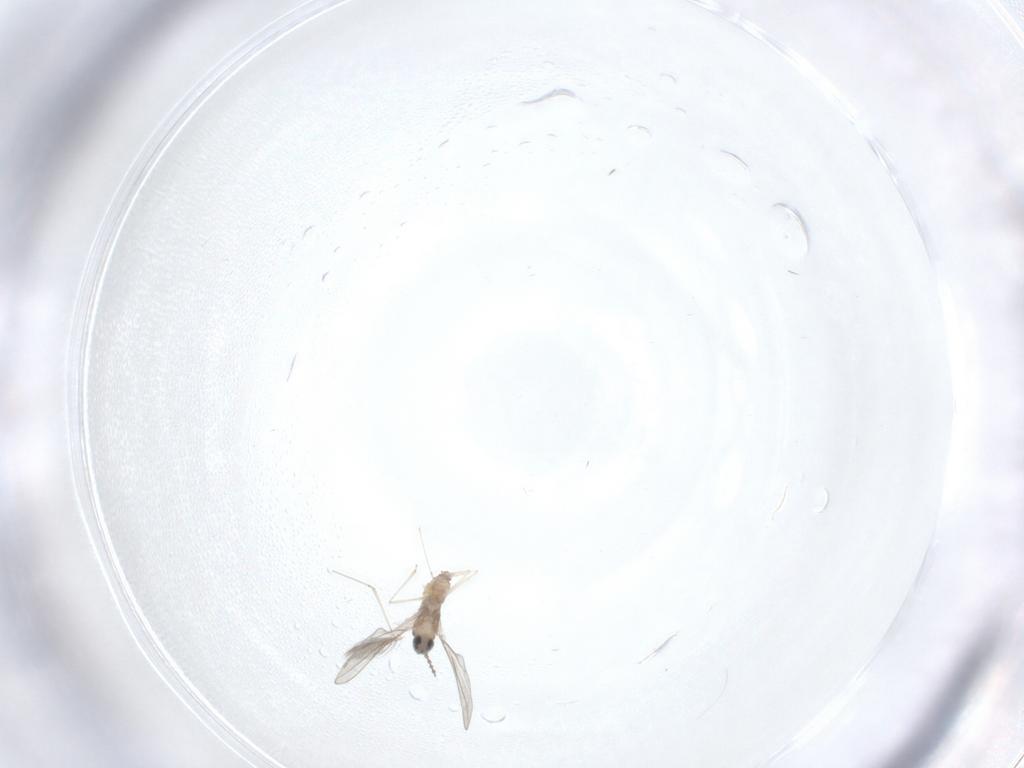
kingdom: Animalia
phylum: Arthropoda
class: Insecta
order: Diptera
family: Cecidomyiidae
